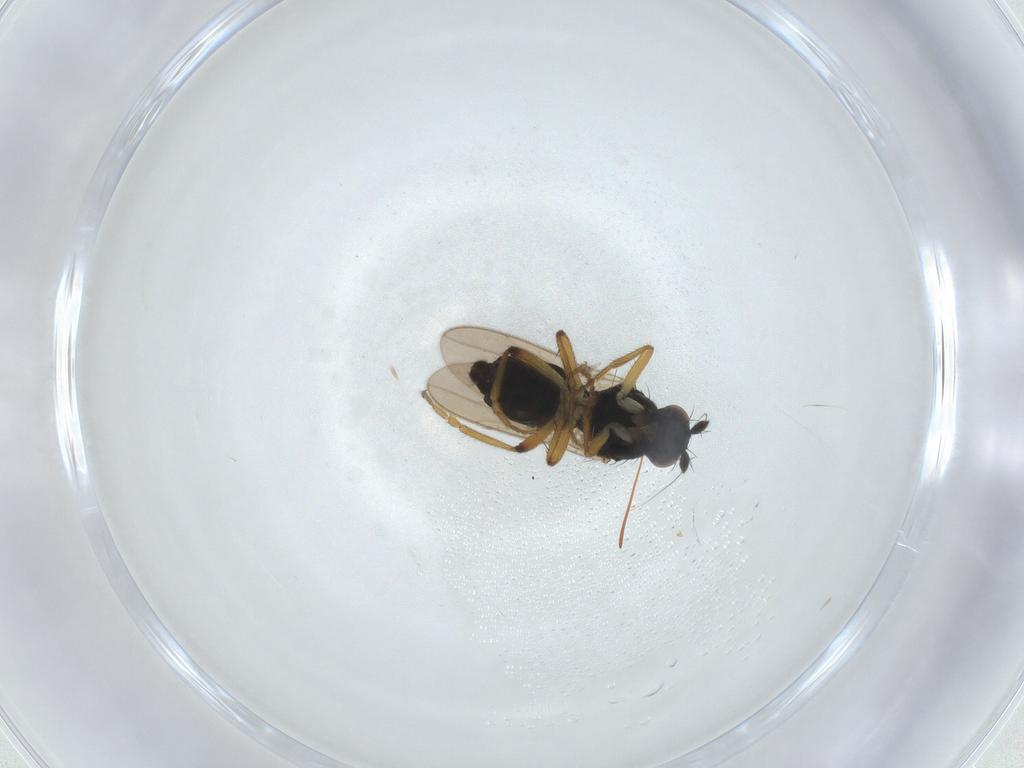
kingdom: Animalia
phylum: Arthropoda
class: Insecta
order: Diptera
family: Sphaeroceridae
